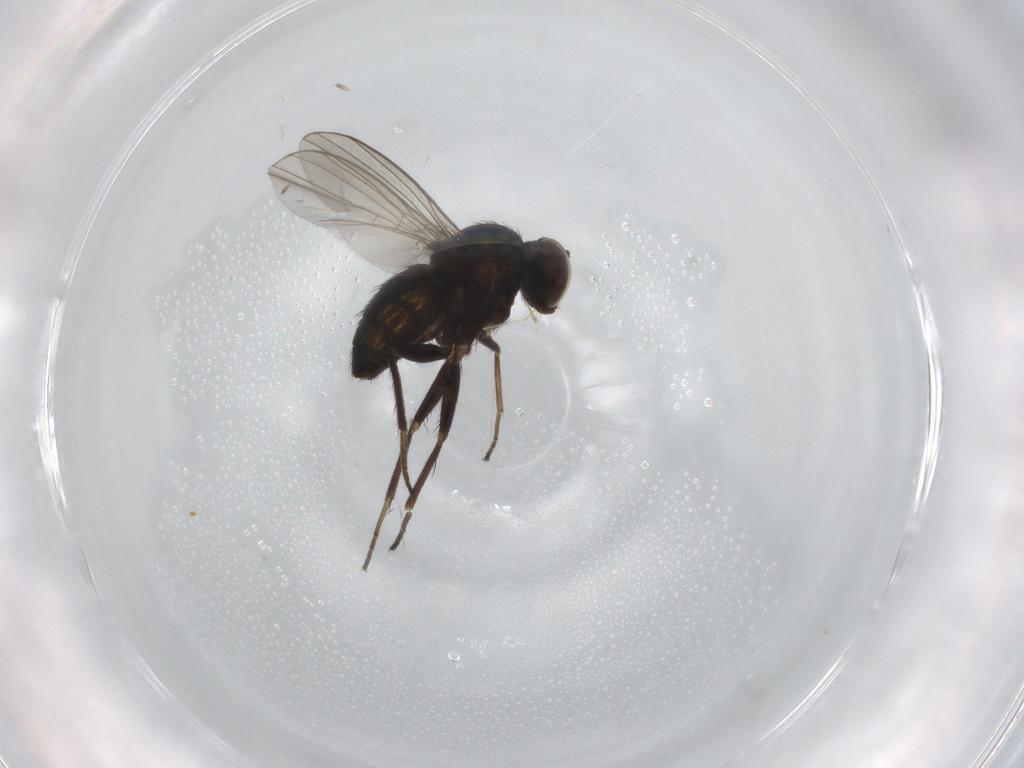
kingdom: Animalia
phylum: Arthropoda
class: Insecta
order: Diptera
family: Dolichopodidae
